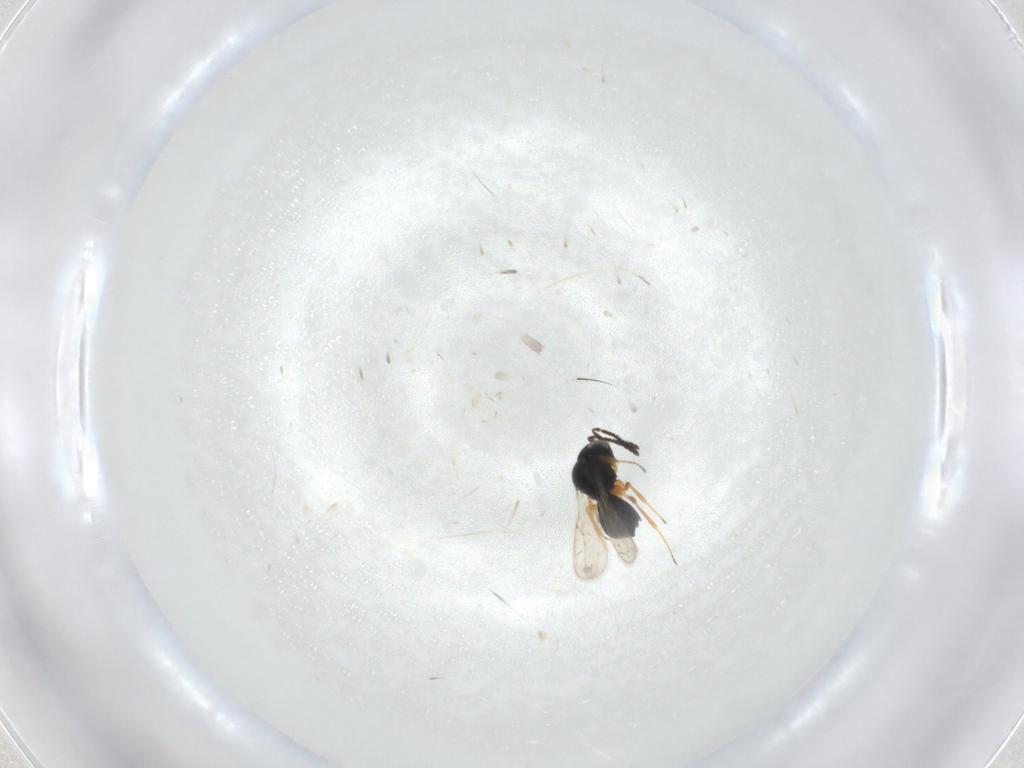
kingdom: Animalia
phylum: Arthropoda
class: Insecta
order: Hymenoptera
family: Scelionidae
